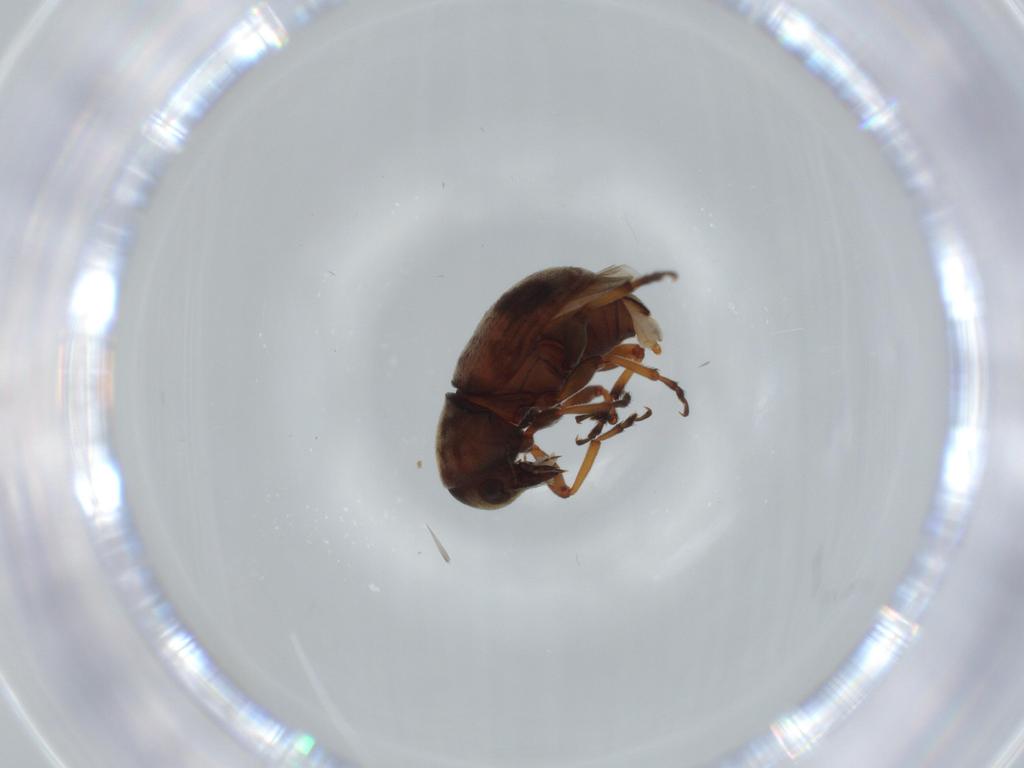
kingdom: Animalia
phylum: Arthropoda
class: Insecta
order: Coleoptera
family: Anthribidae
